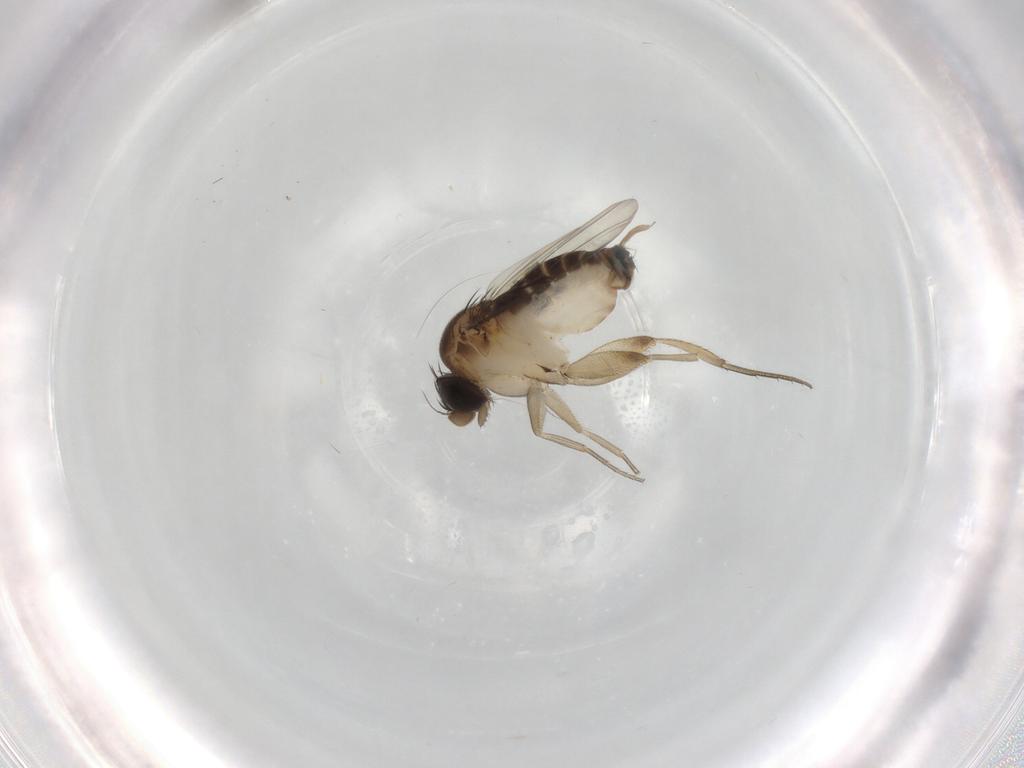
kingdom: Animalia
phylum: Arthropoda
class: Insecta
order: Diptera
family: Phoridae
